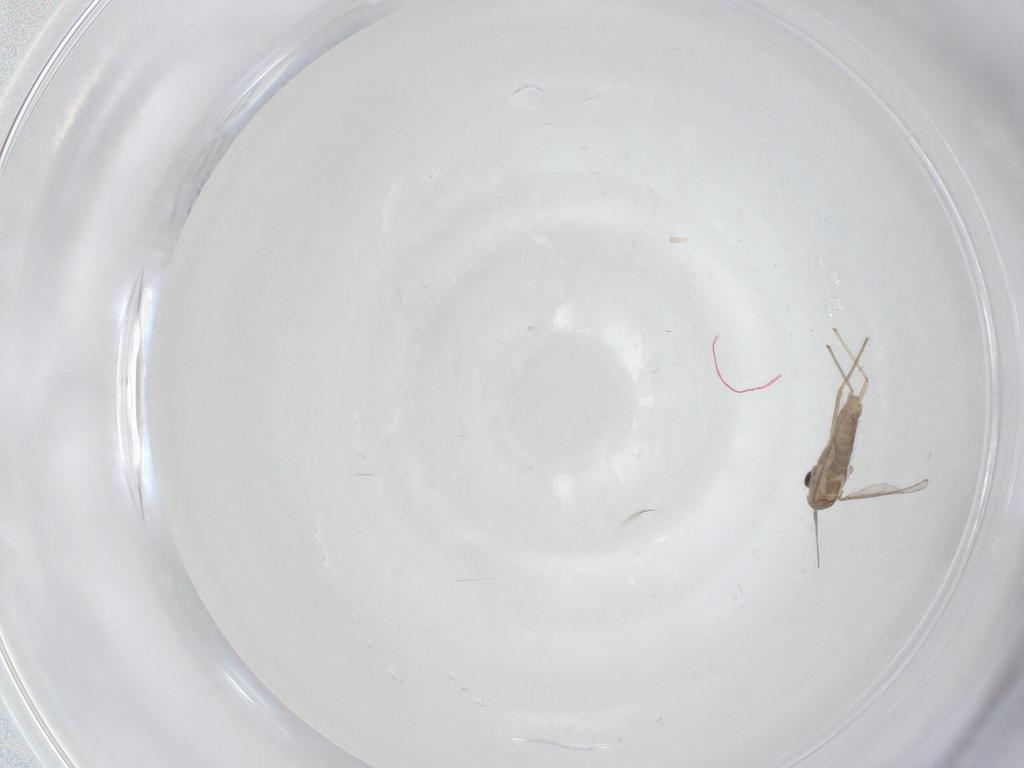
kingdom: Animalia
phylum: Arthropoda
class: Insecta
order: Diptera
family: Chironomidae
